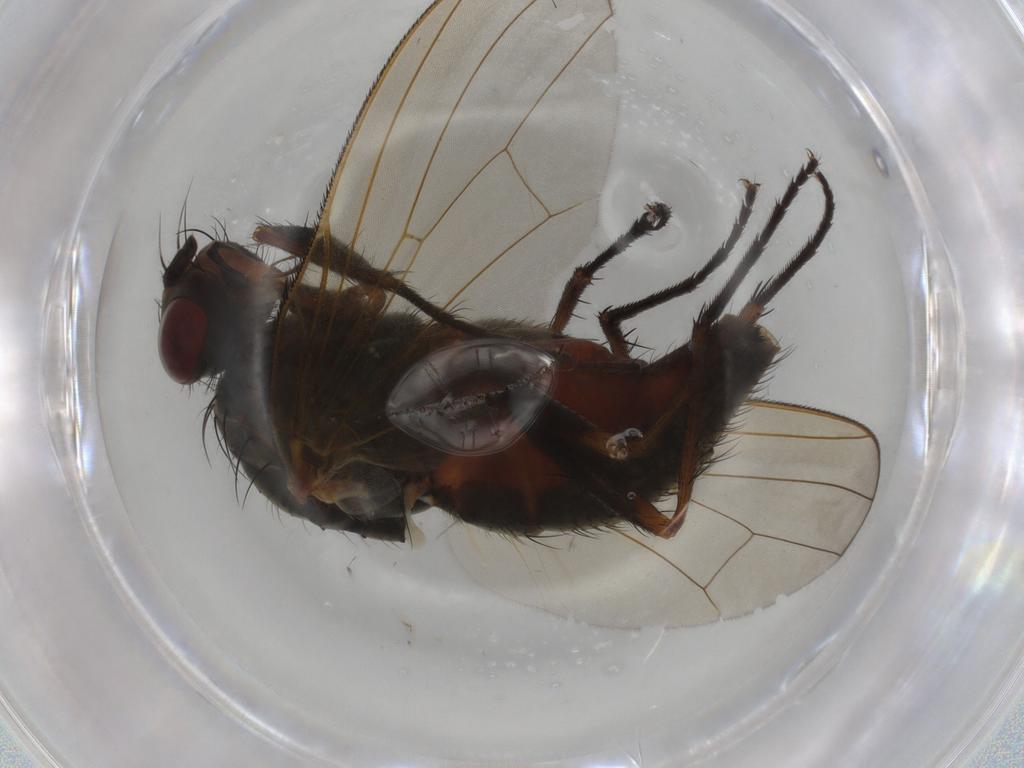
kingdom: Animalia
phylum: Arthropoda
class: Insecta
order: Diptera
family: Anthomyiidae
